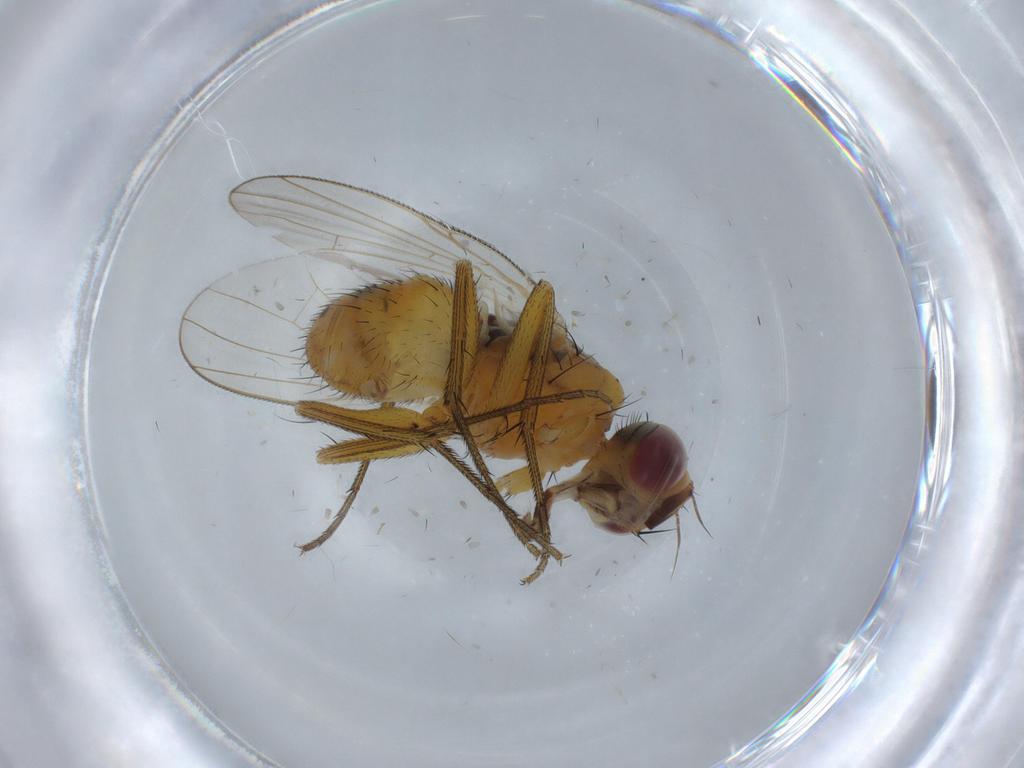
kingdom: Animalia
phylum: Arthropoda
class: Insecta
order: Diptera
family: Muscidae
